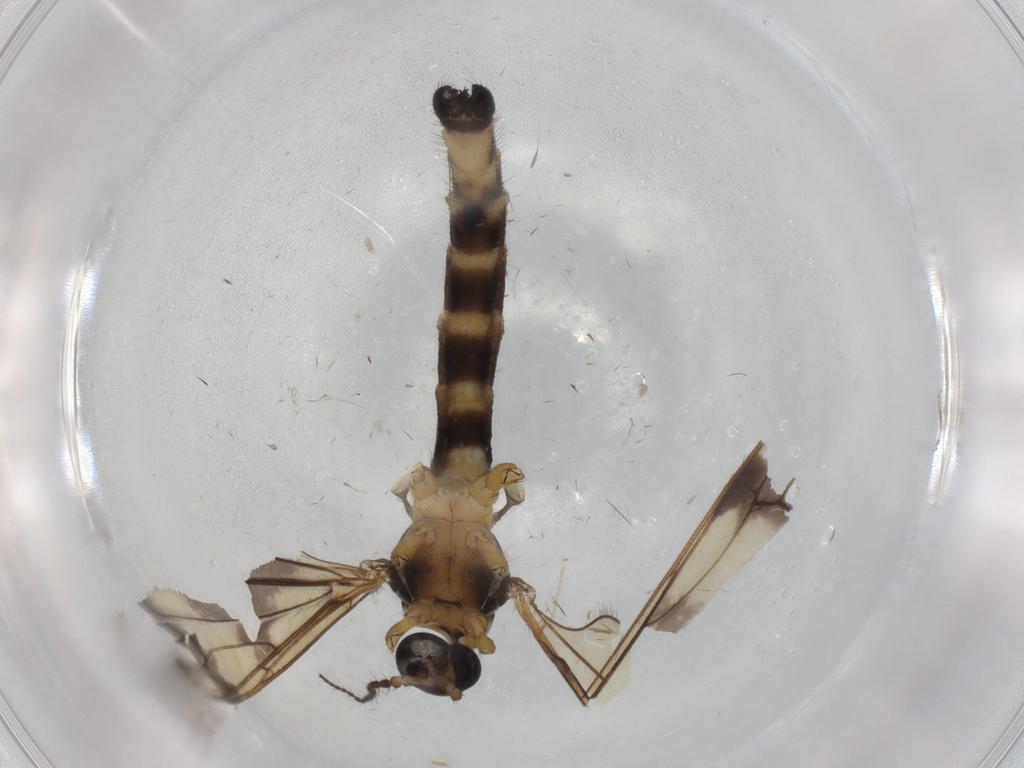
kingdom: Animalia
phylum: Arthropoda
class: Insecta
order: Diptera
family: Limoniidae
